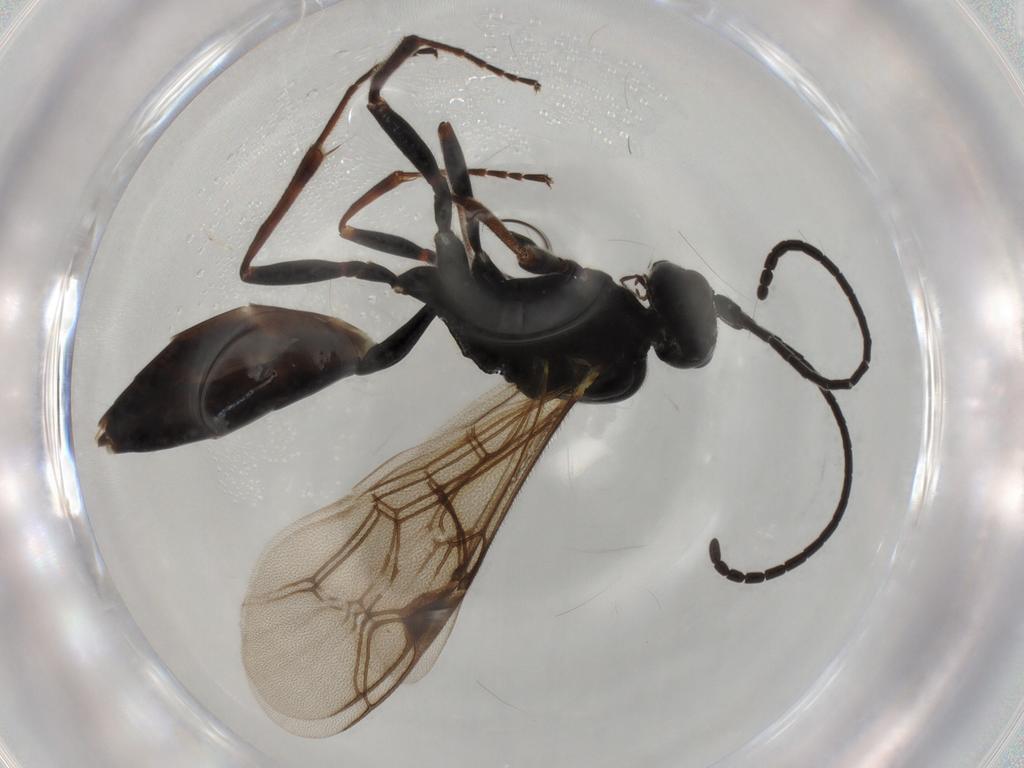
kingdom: Animalia
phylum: Arthropoda
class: Insecta
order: Hymenoptera
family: Ichneumonidae
